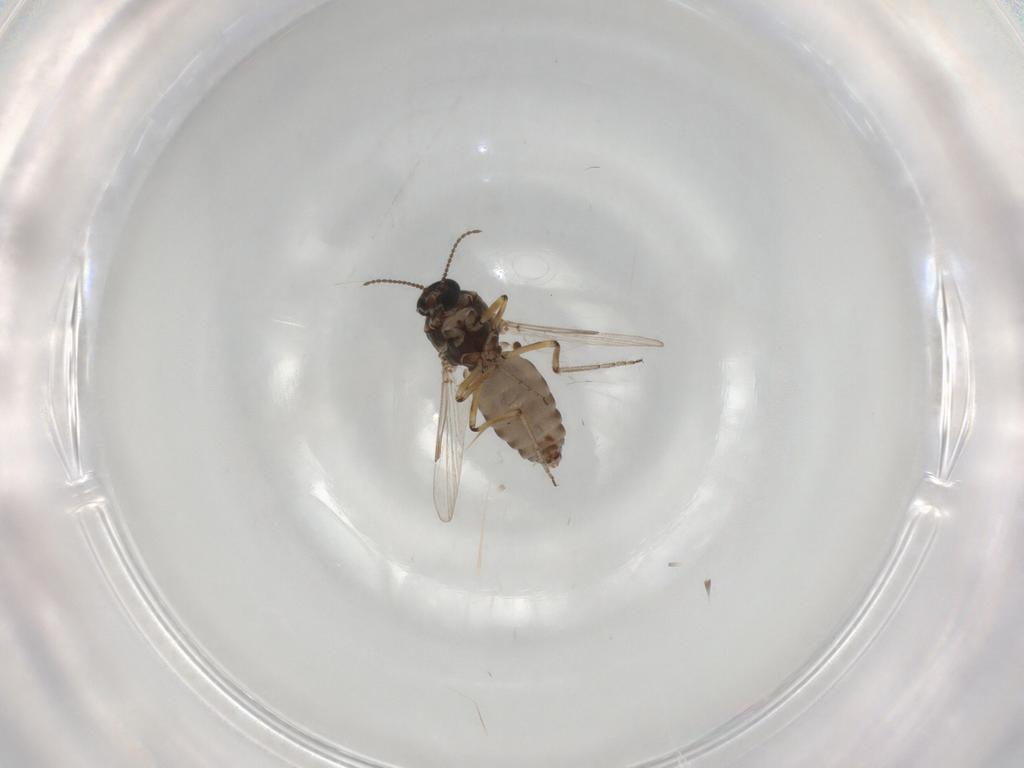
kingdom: Animalia
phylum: Arthropoda
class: Insecta
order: Diptera
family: Ceratopogonidae
